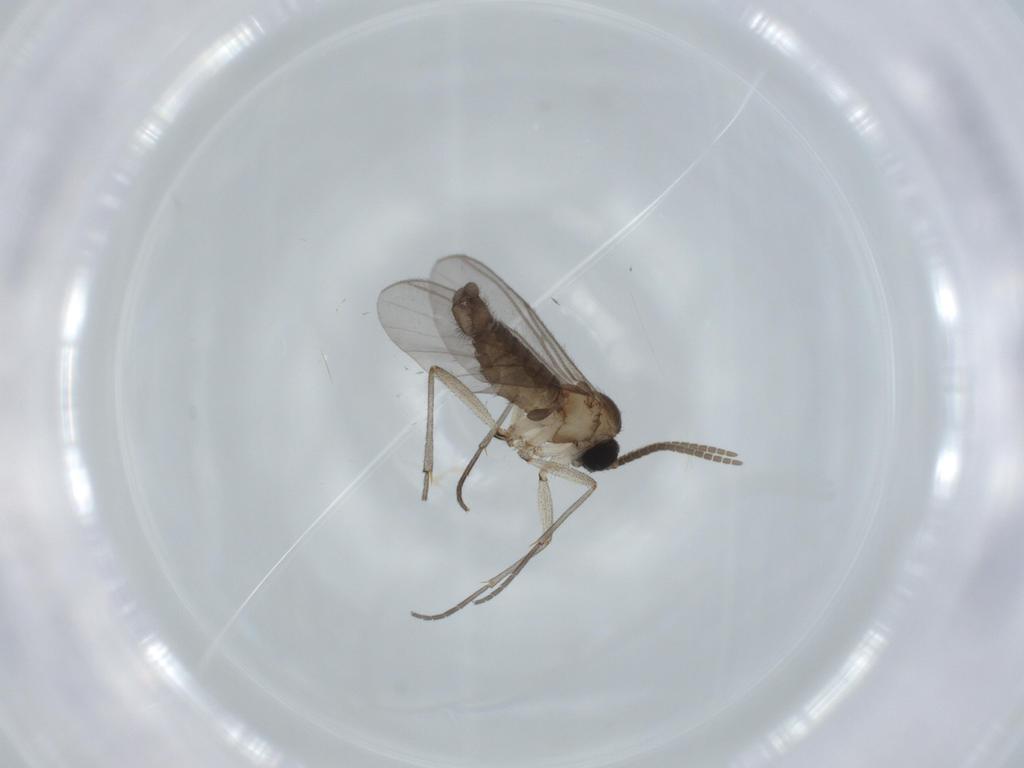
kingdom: Animalia
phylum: Arthropoda
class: Insecta
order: Diptera
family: Sciaridae
